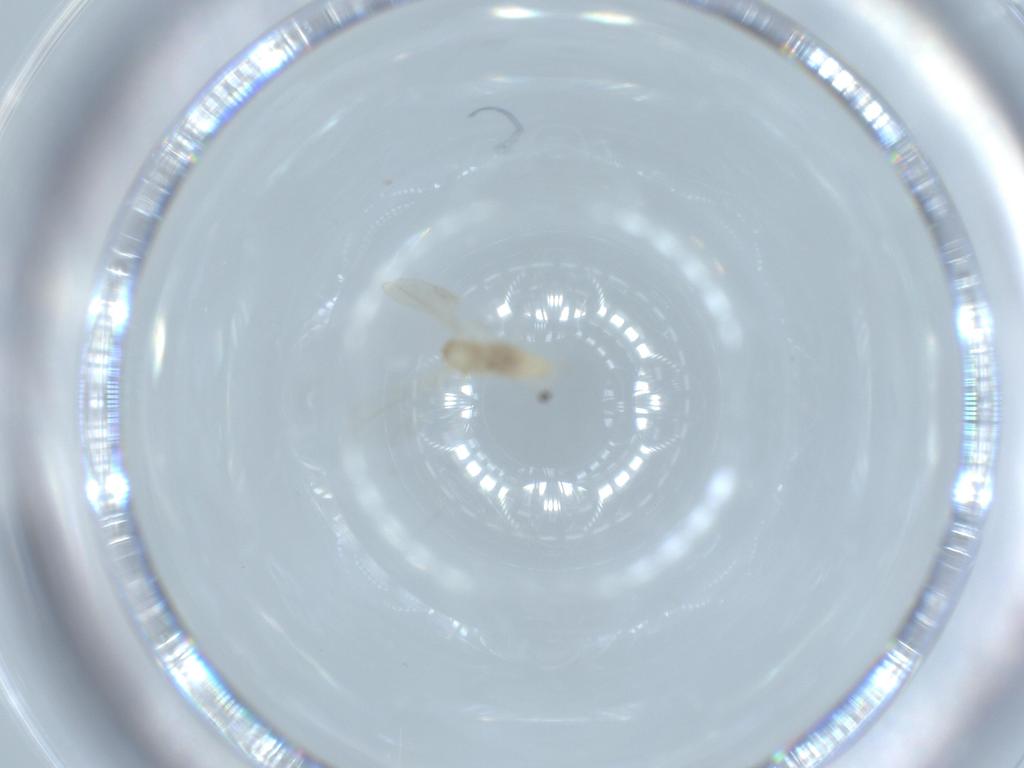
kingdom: Animalia
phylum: Arthropoda
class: Insecta
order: Diptera
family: Cecidomyiidae
